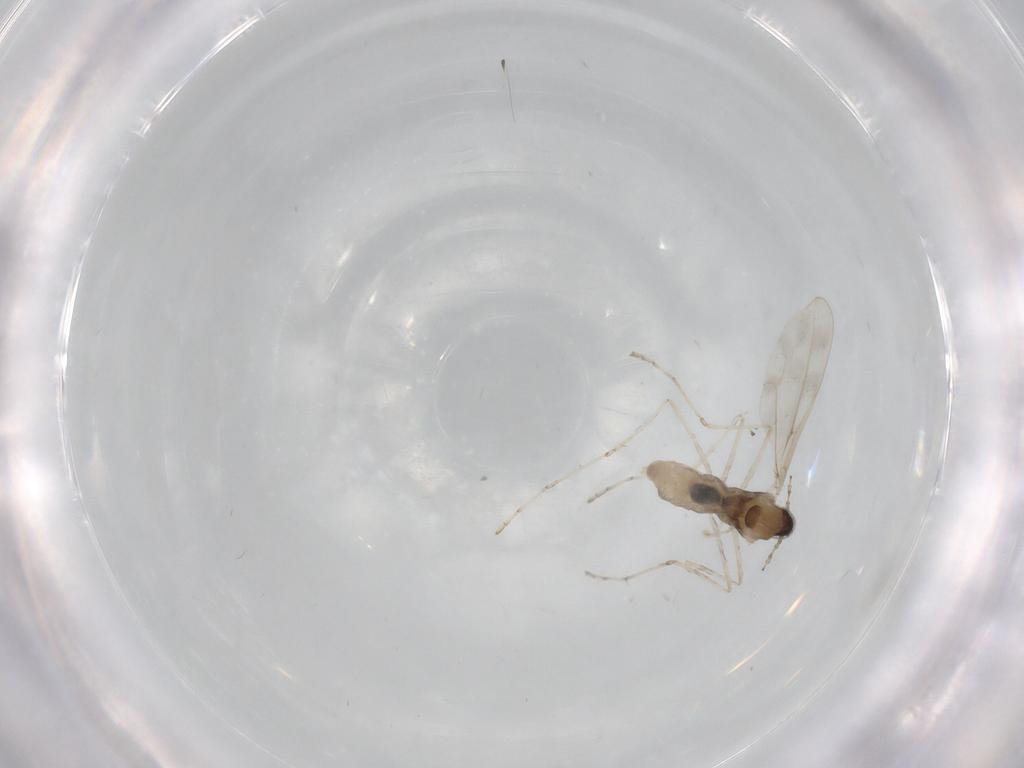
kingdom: Animalia
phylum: Arthropoda
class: Insecta
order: Diptera
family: Cecidomyiidae
